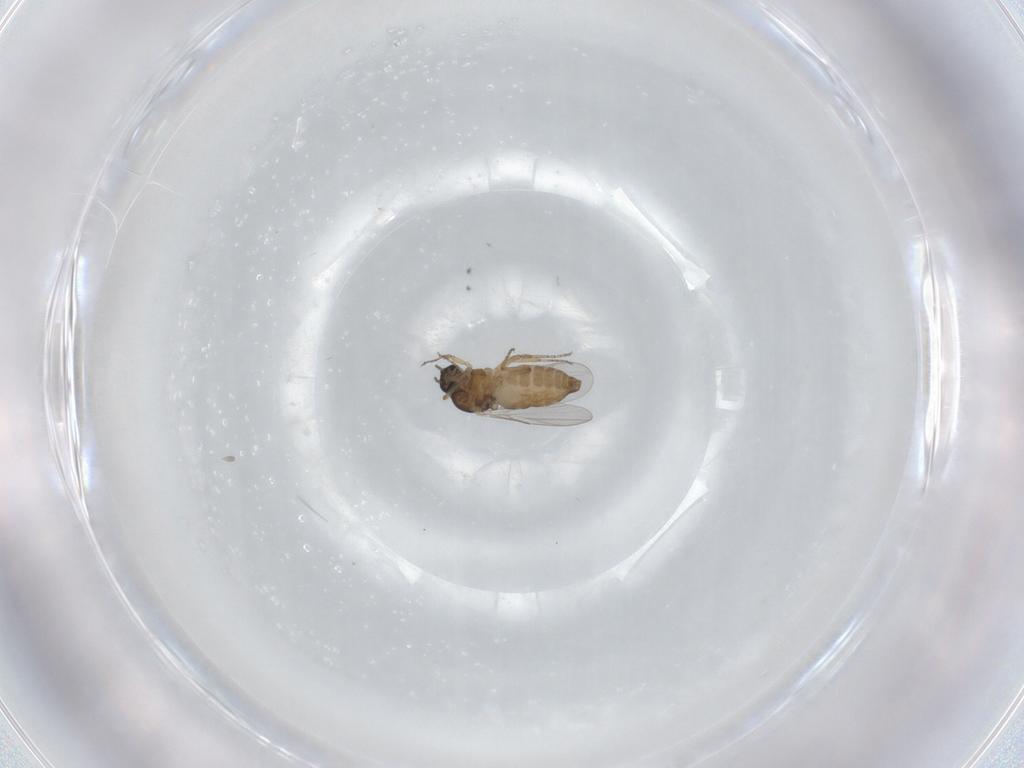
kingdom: Animalia
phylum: Arthropoda
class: Insecta
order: Diptera
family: Ceratopogonidae
